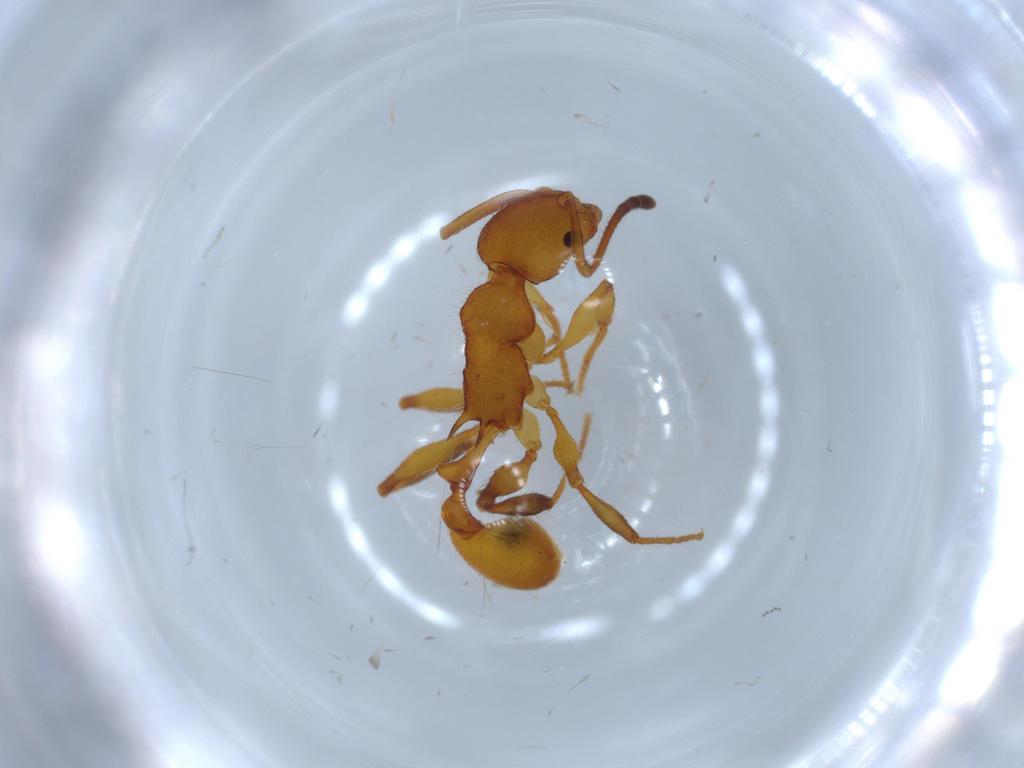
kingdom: Animalia
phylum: Arthropoda
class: Insecta
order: Hymenoptera
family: Formicidae
